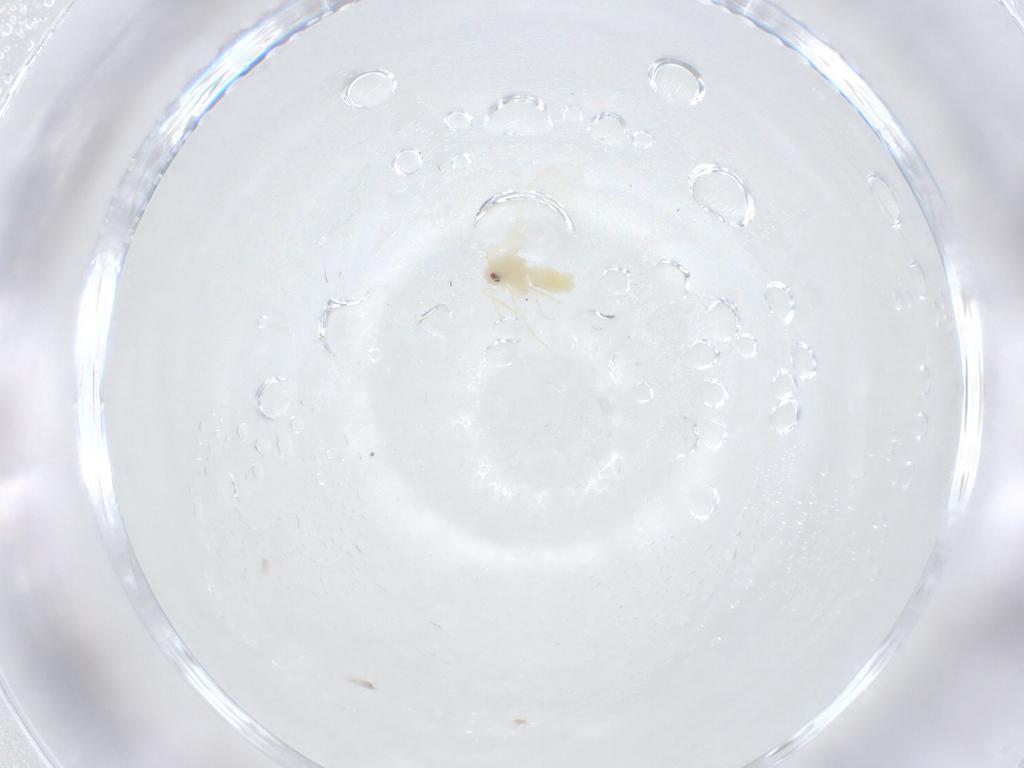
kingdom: Animalia
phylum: Arthropoda
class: Insecta
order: Hemiptera
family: Aleyrodidae
